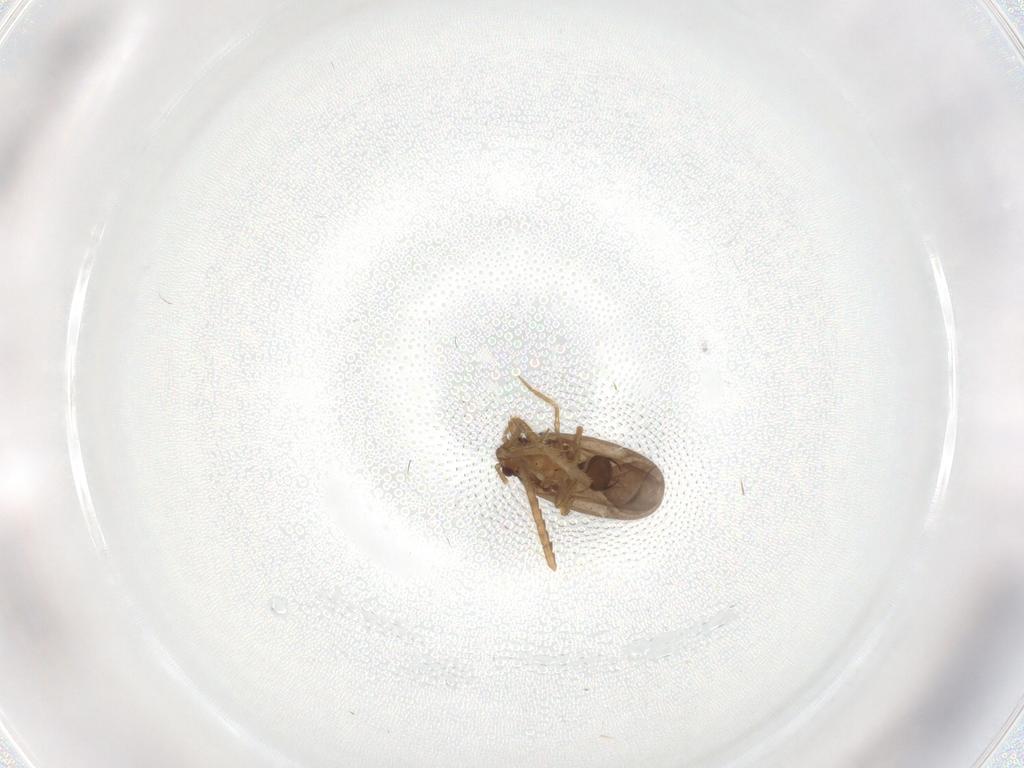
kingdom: Animalia
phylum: Arthropoda
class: Insecta
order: Hemiptera
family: Ceratocombidae
